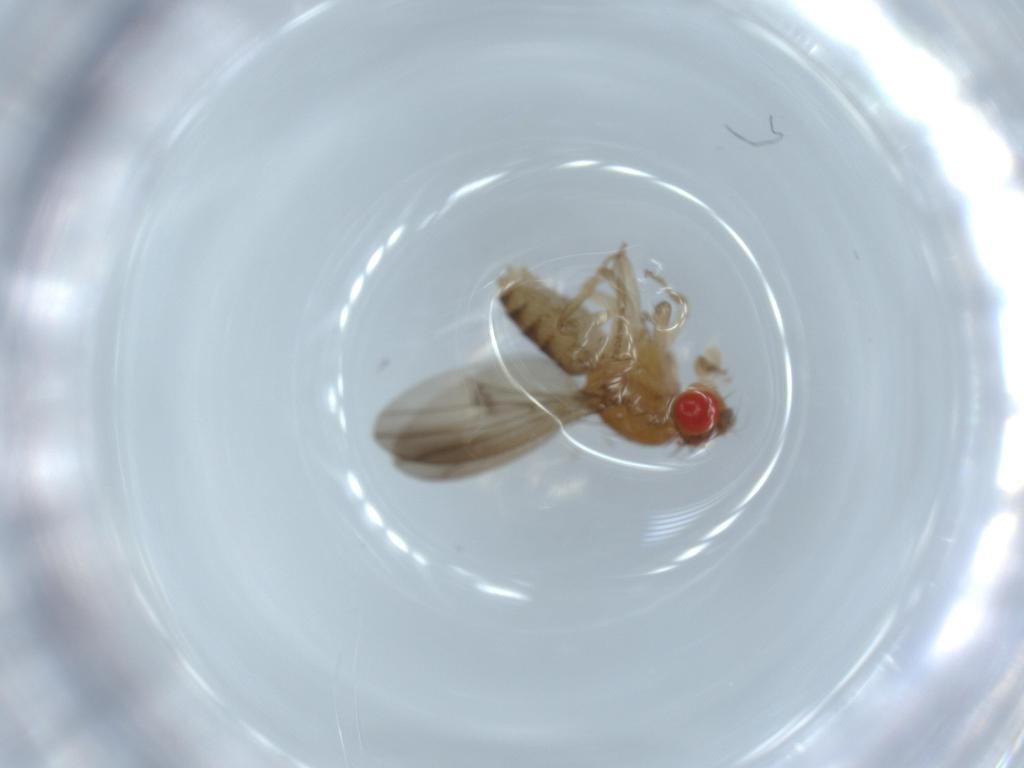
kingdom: Animalia
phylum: Arthropoda
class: Insecta
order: Diptera
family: Drosophilidae
